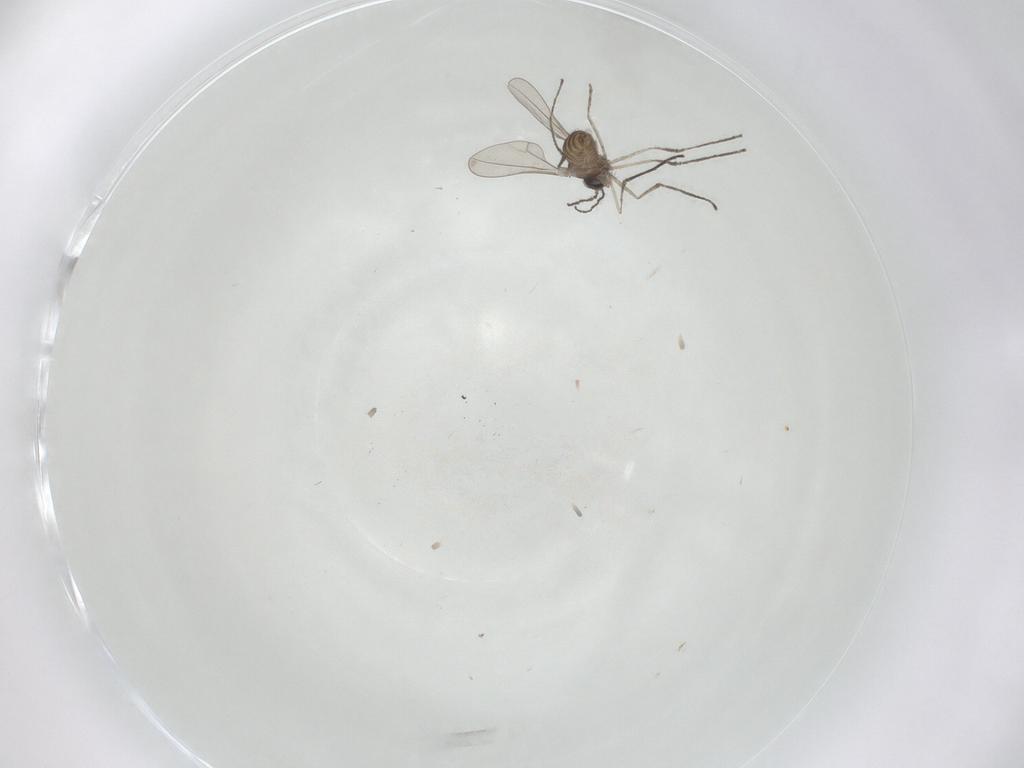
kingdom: Animalia
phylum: Arthropoda
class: Insecta
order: Diptera
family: Cecidomyiidae
